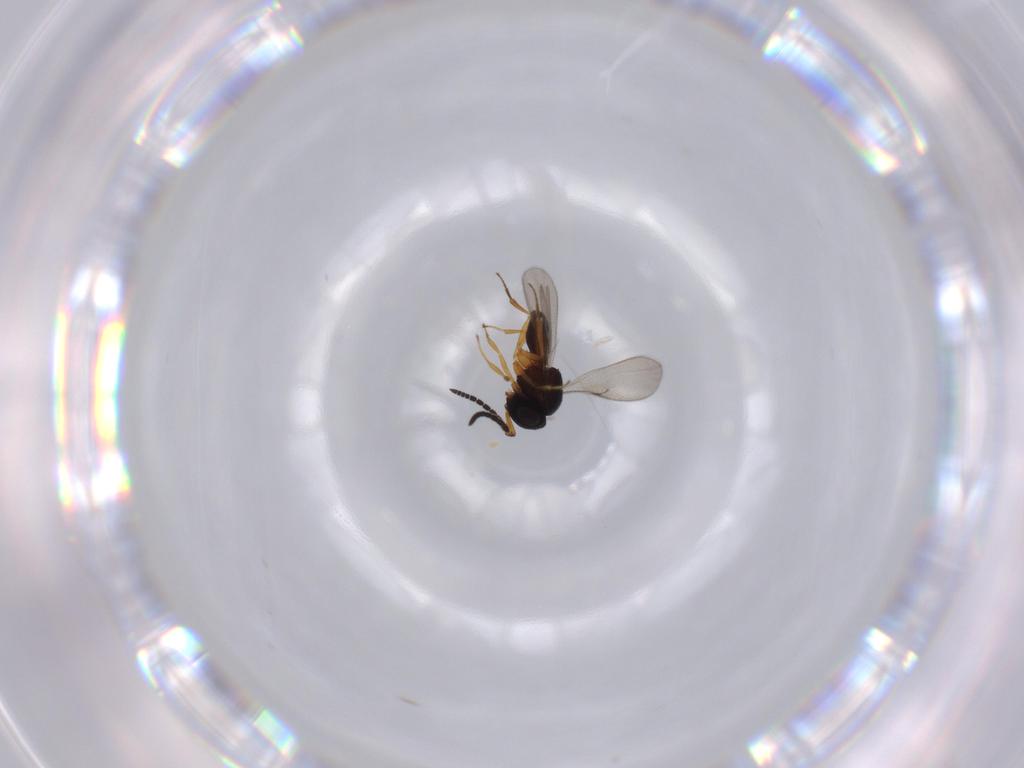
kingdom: Animalia
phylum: Arthropoda
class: Insecta
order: Hymenoptera
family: Scelionidae
